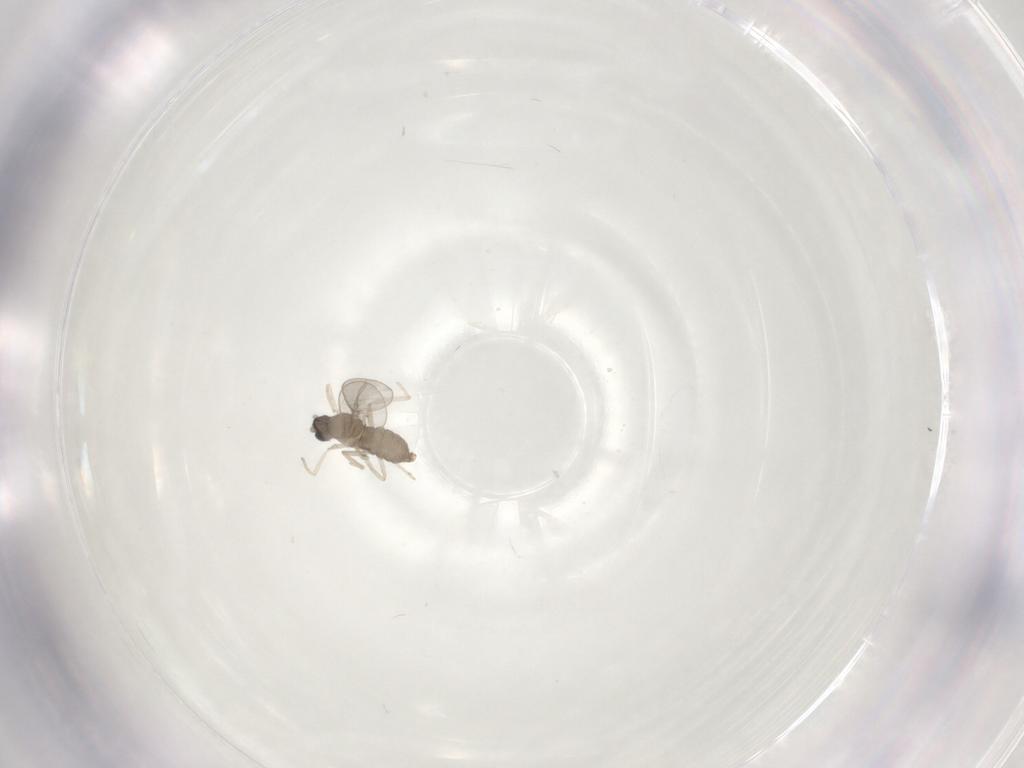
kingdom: Animalia
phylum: Arthropoda
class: Insecta
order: Diptera
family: Cecidomyiidae
